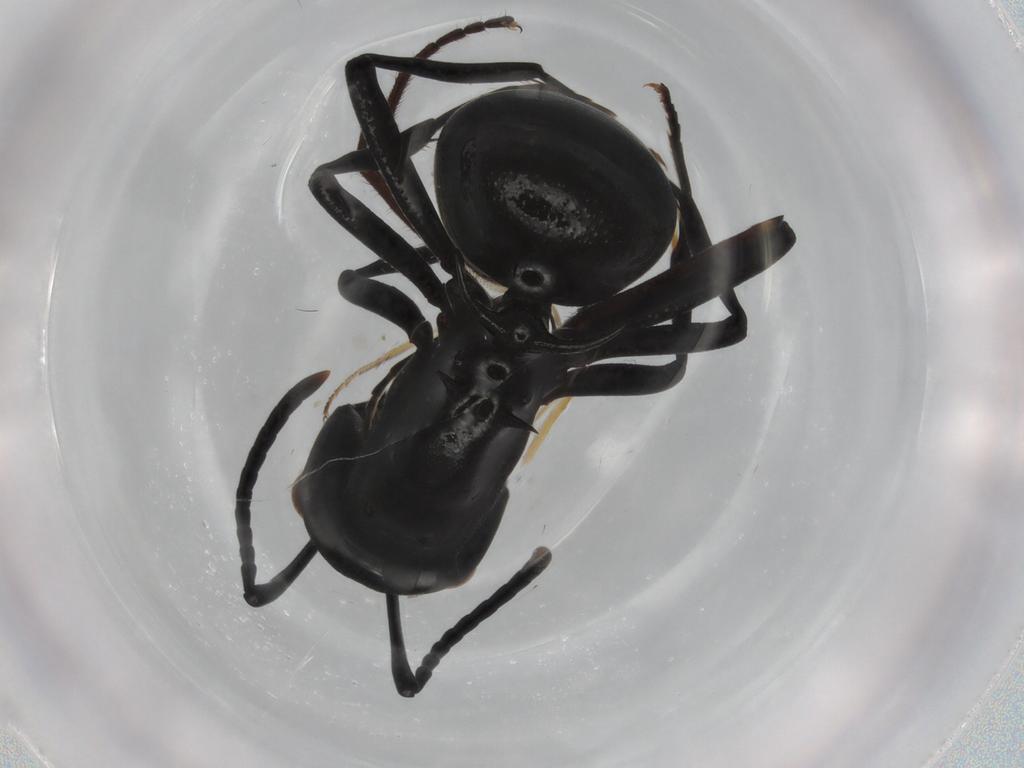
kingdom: Animalia
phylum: Arthropoda
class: Insecta
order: Hymenoptera
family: Formicidae
